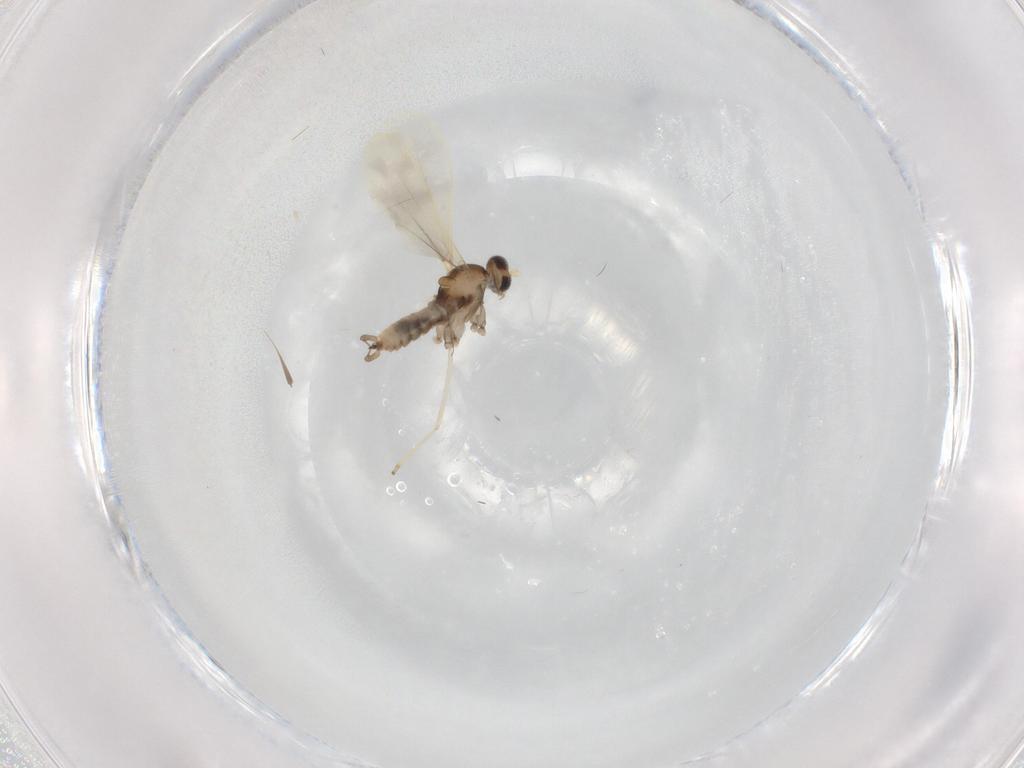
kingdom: Animalia
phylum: Arthropoda
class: Insecta
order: Diptera
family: Cecidomyiidae
